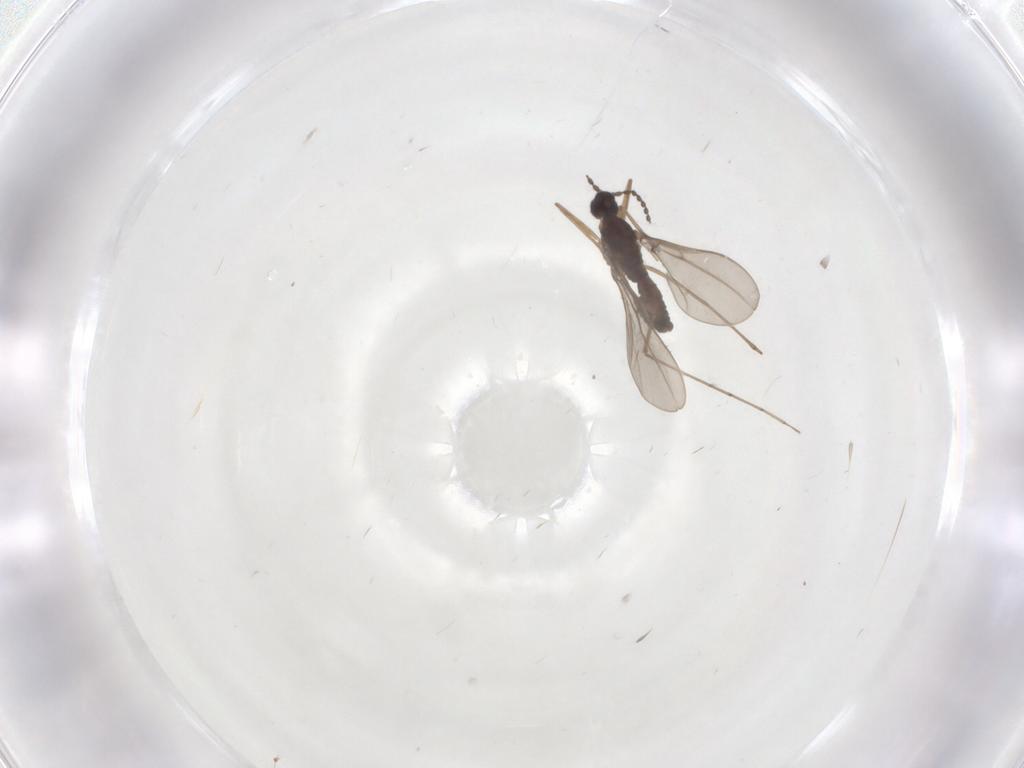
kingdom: Animalia
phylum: Arthropoda
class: Insecta
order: Diptera
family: Cecidomyiidae
